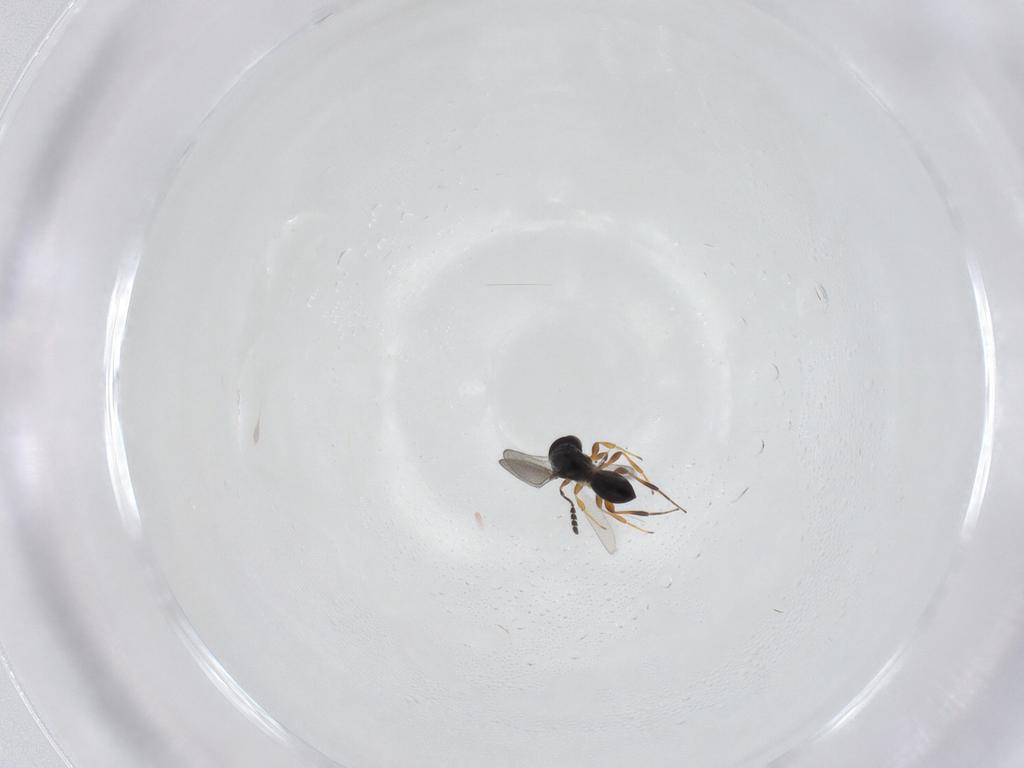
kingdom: Animalia
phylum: Arthropoda
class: Insecta
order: Hymenoptera
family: Platygastridae
